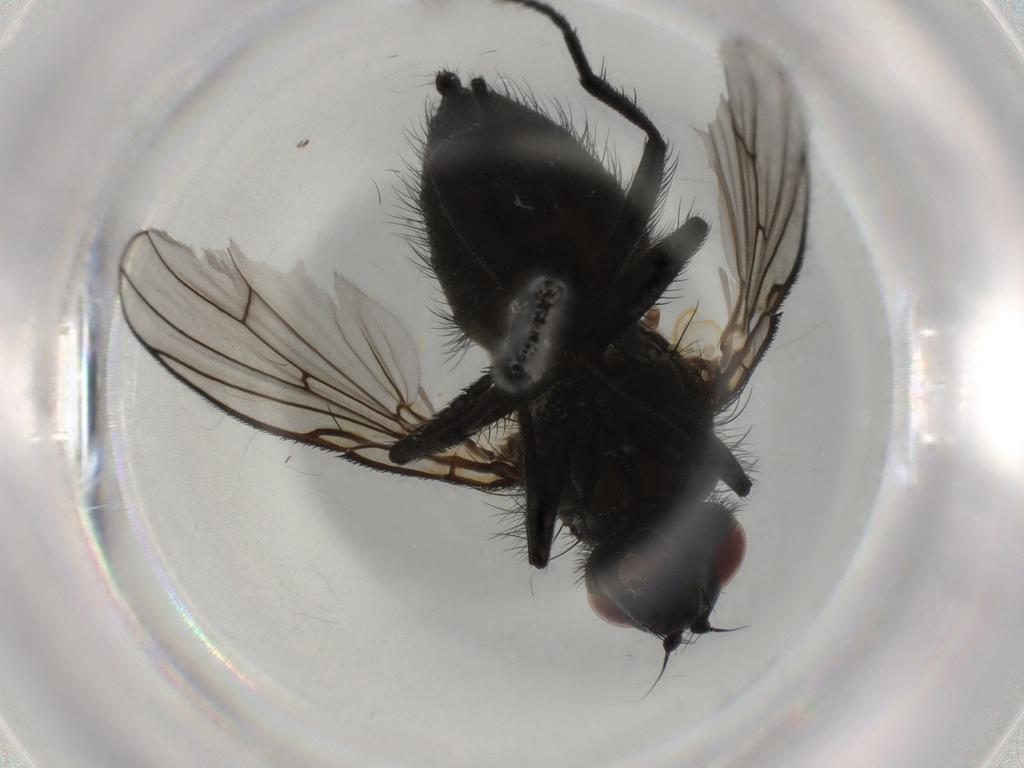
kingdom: Animalia
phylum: Arthropoda
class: Insecta
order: Diptera
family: Muscidae
